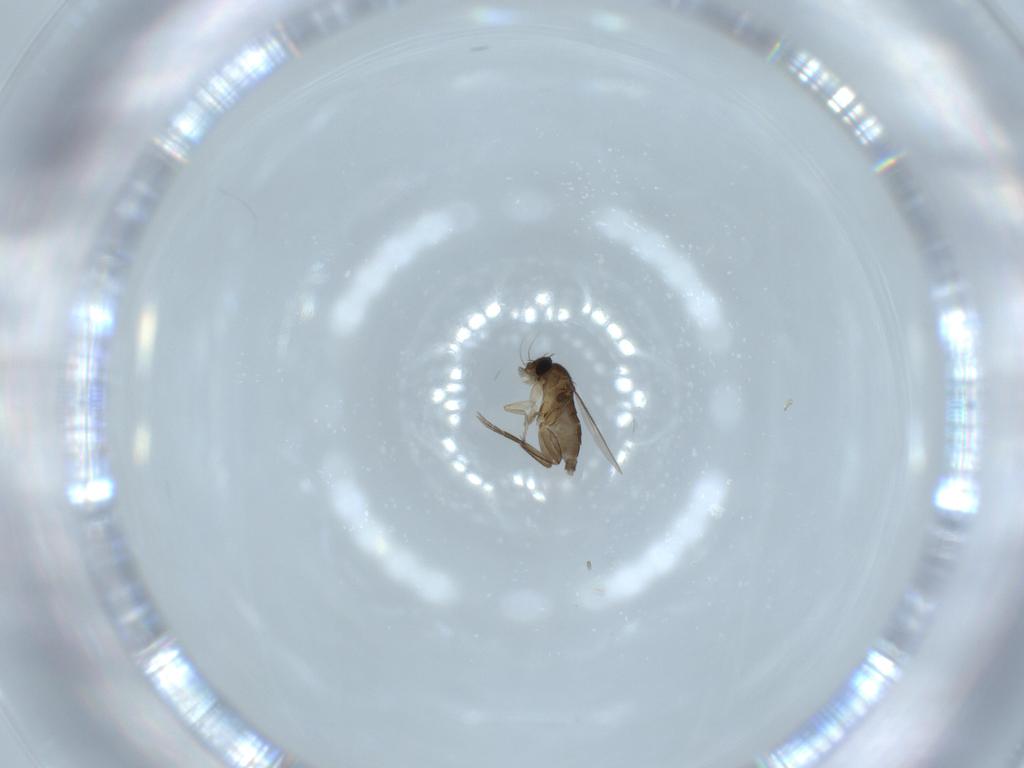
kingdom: Animalia
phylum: Arthropoda
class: Insecta
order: Diptera
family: Phoridae
